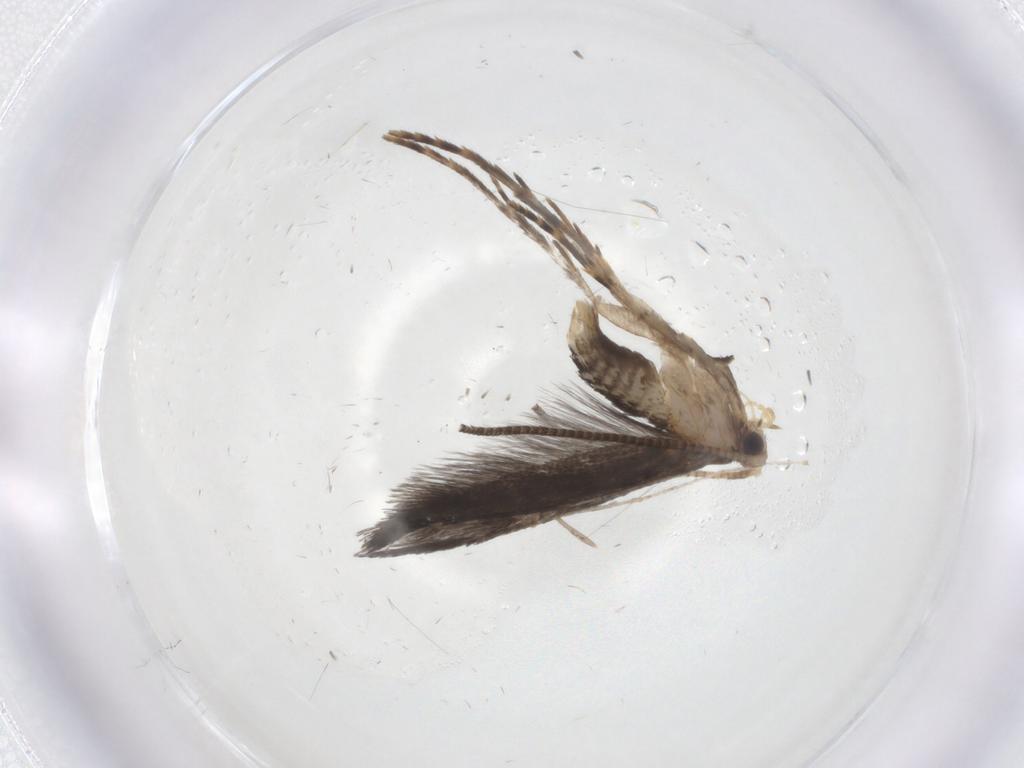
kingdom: Animalia
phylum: Arthropoda
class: Insecta
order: Lepidoptera
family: Tineidae
